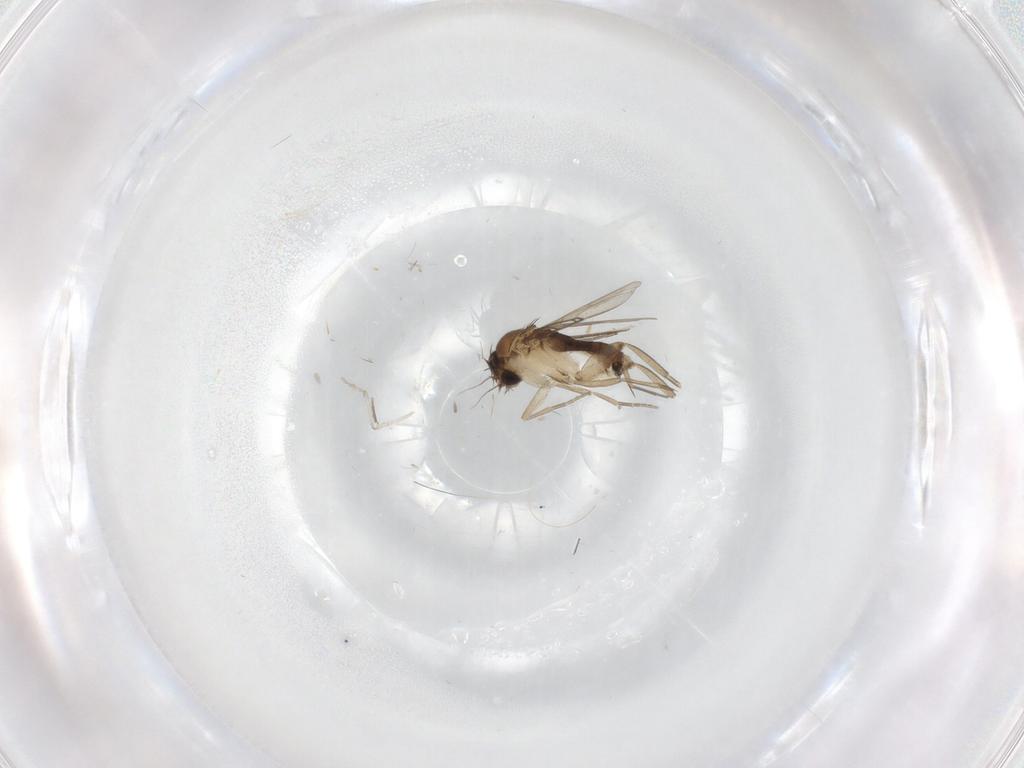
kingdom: Animalia
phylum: Arthropoda
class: Insecta
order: Diptera
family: Phoridae
